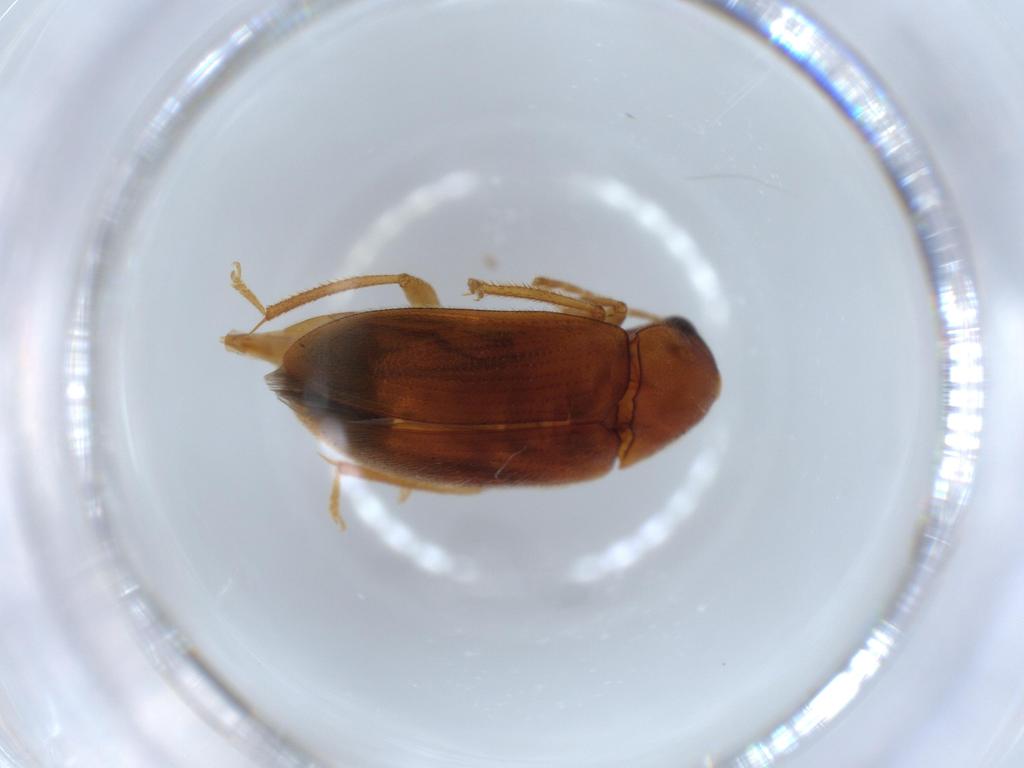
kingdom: Animalia
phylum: Arthropoda
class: Insecta
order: Coleoptera
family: Ptilodactylidae
